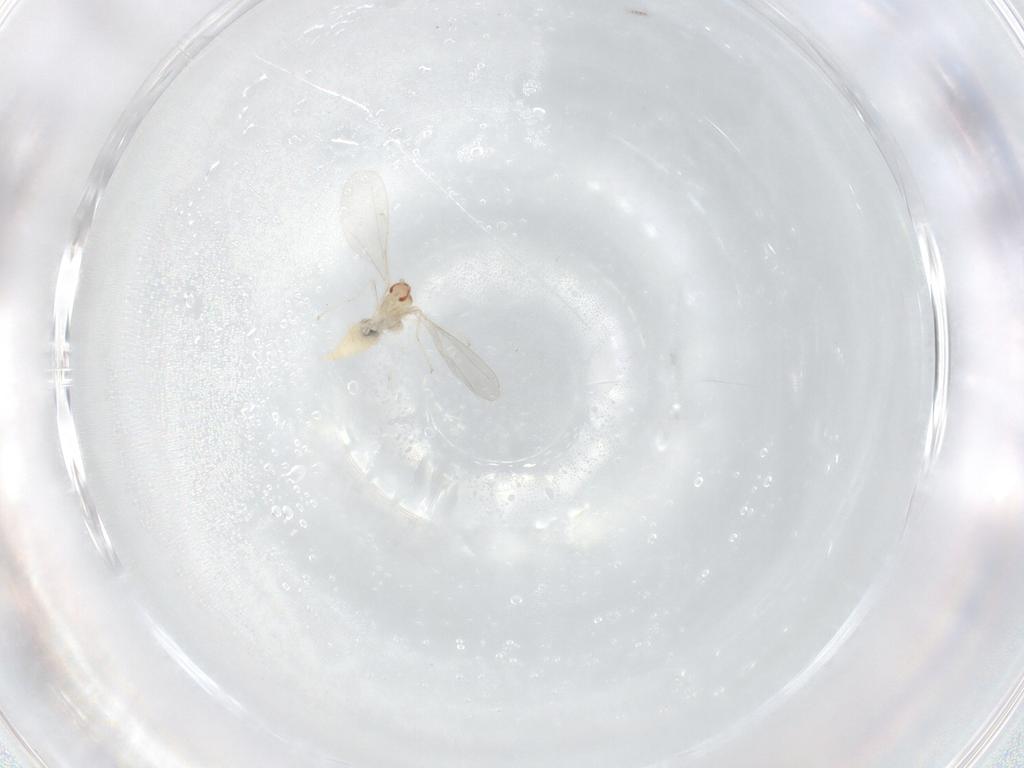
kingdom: Animalia
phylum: Arthropoda
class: Insecta
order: Diptera
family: Cecidomyiidae
